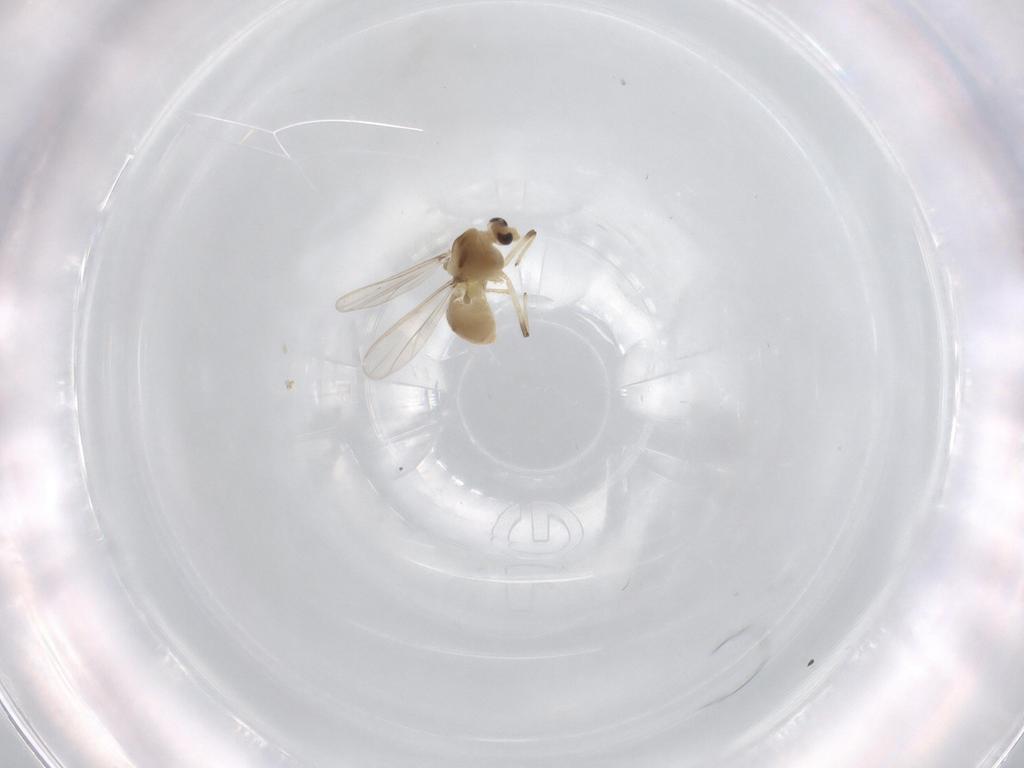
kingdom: Animalia
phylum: Arthropoda
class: Insecta
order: Diptera
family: Chironomidae
